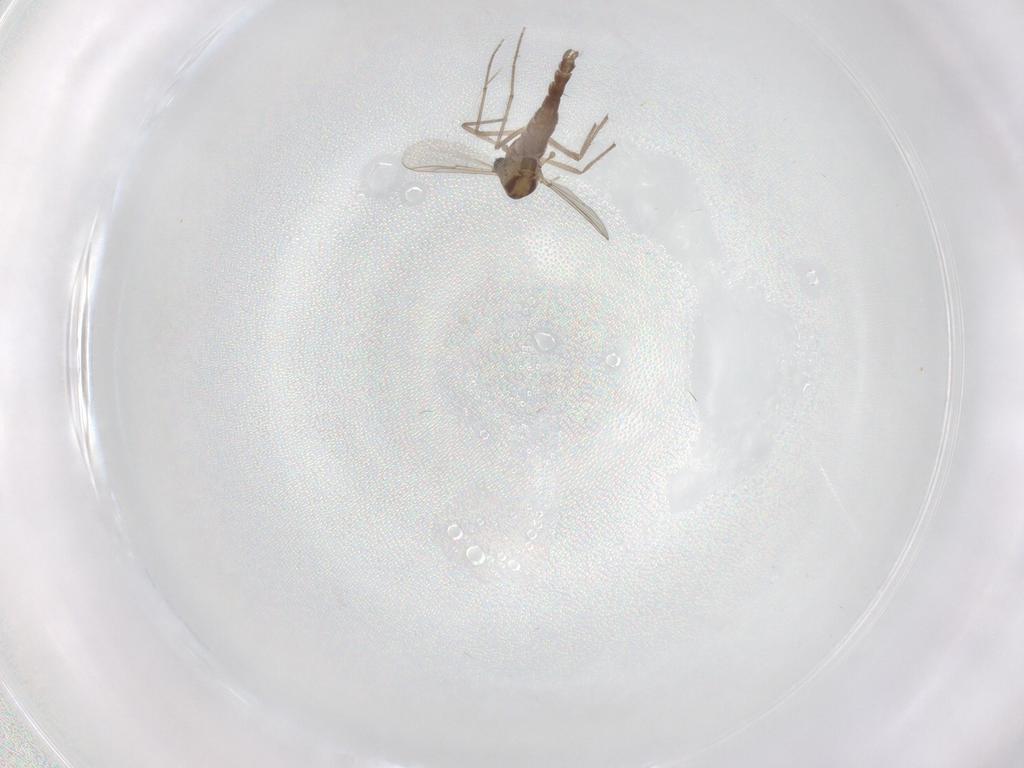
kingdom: Animalia
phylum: Arthropoda
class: Insecta
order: Diptera
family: Chironomidae
